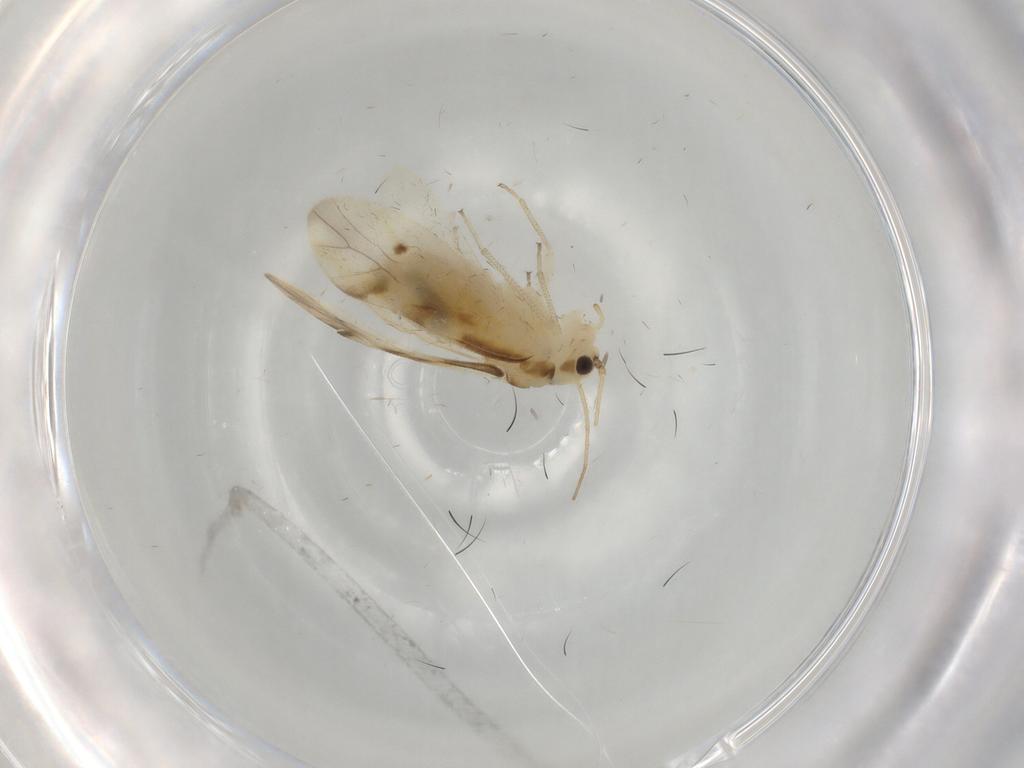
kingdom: Animalia
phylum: Arthropoda
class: Insecta
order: Psocodea
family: Caeciliusidae
